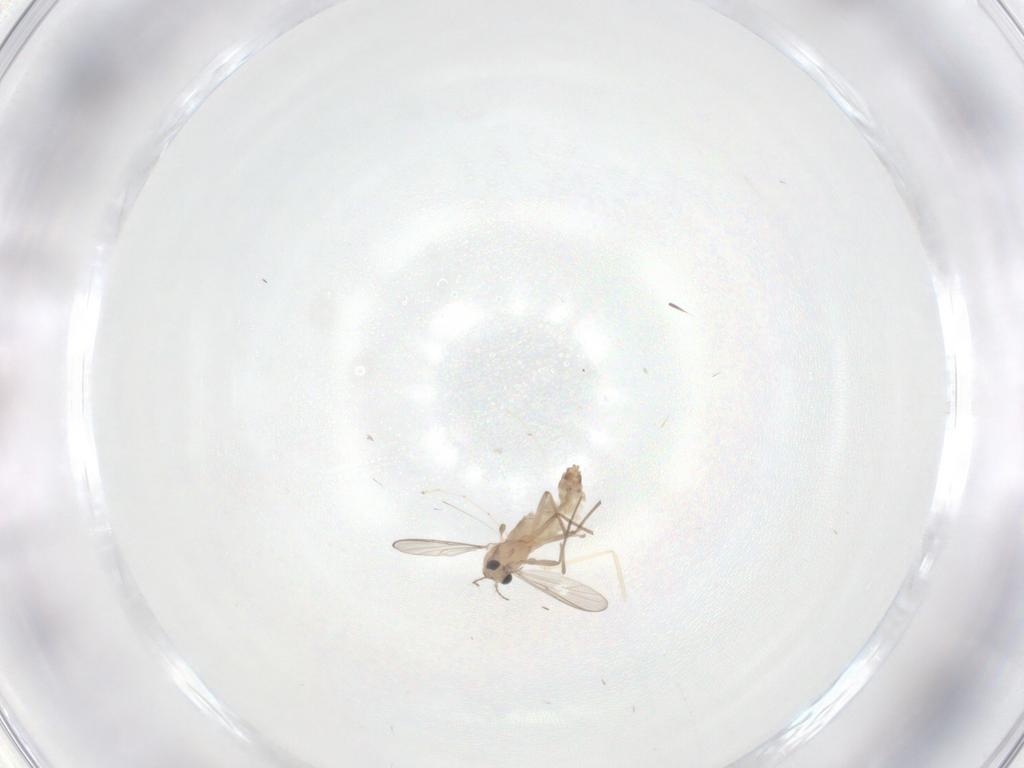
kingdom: Animalia
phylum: Arthropoda
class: Insecta
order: Diptera
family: Chironomidae
